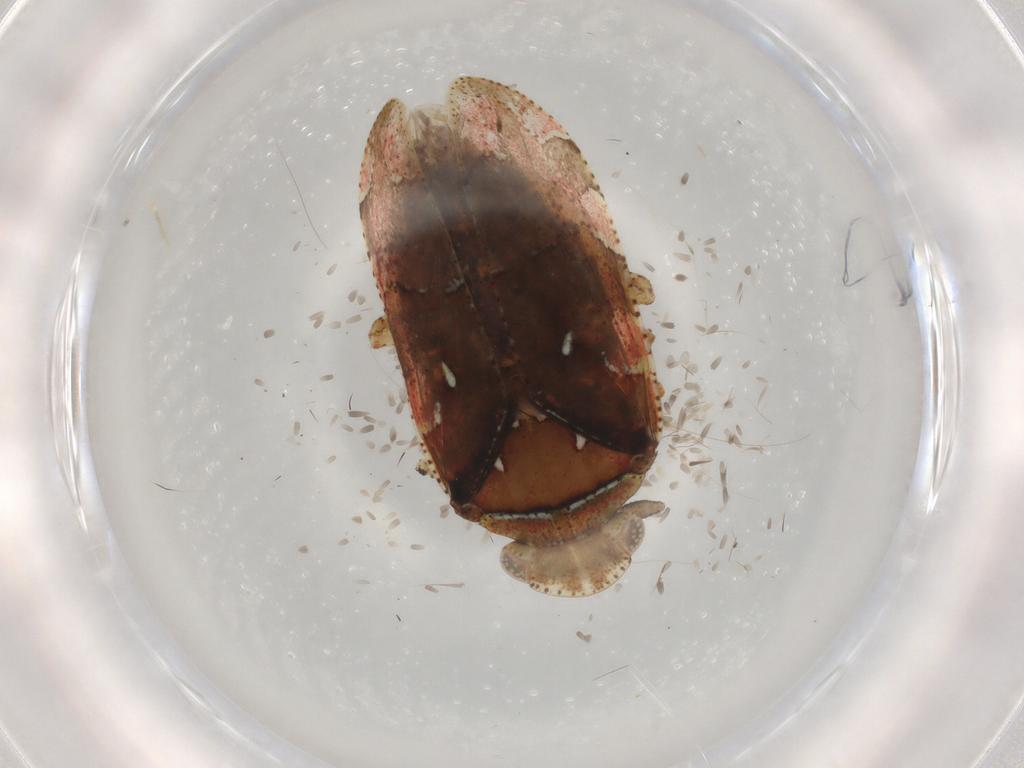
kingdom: Animalia
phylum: Arthropoda
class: Insecta
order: Hemiptera
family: Tettigometridae
